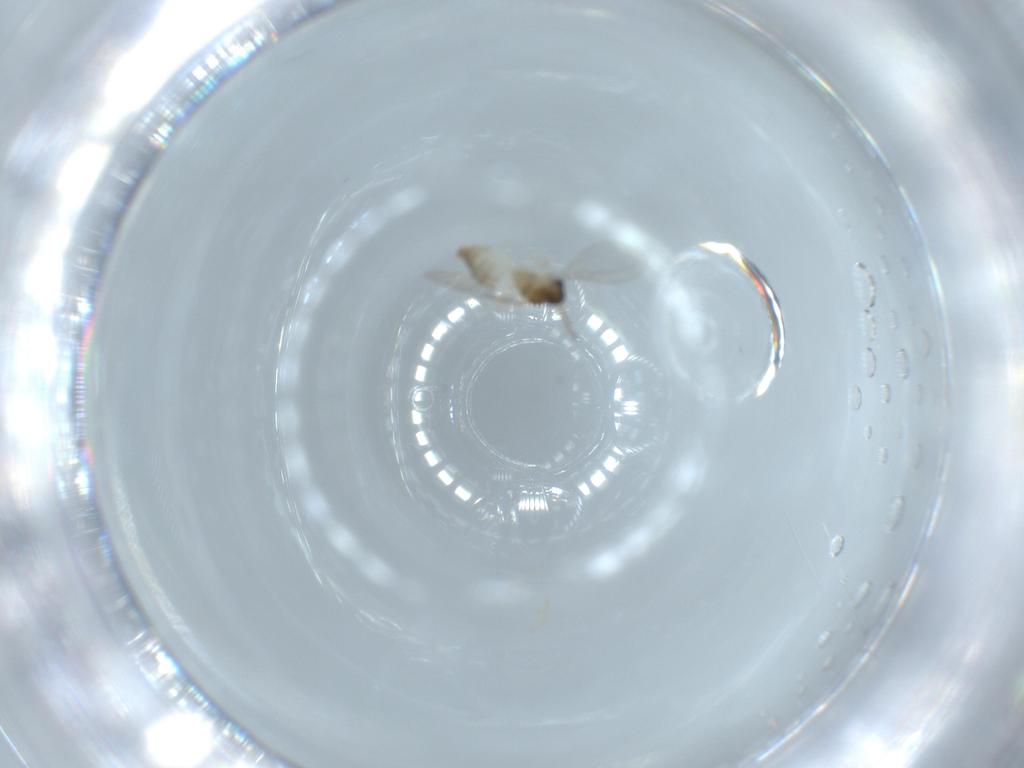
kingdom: Animalia
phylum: Arthropoda
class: Insecta
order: Diptera
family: Cecidomyiidae
